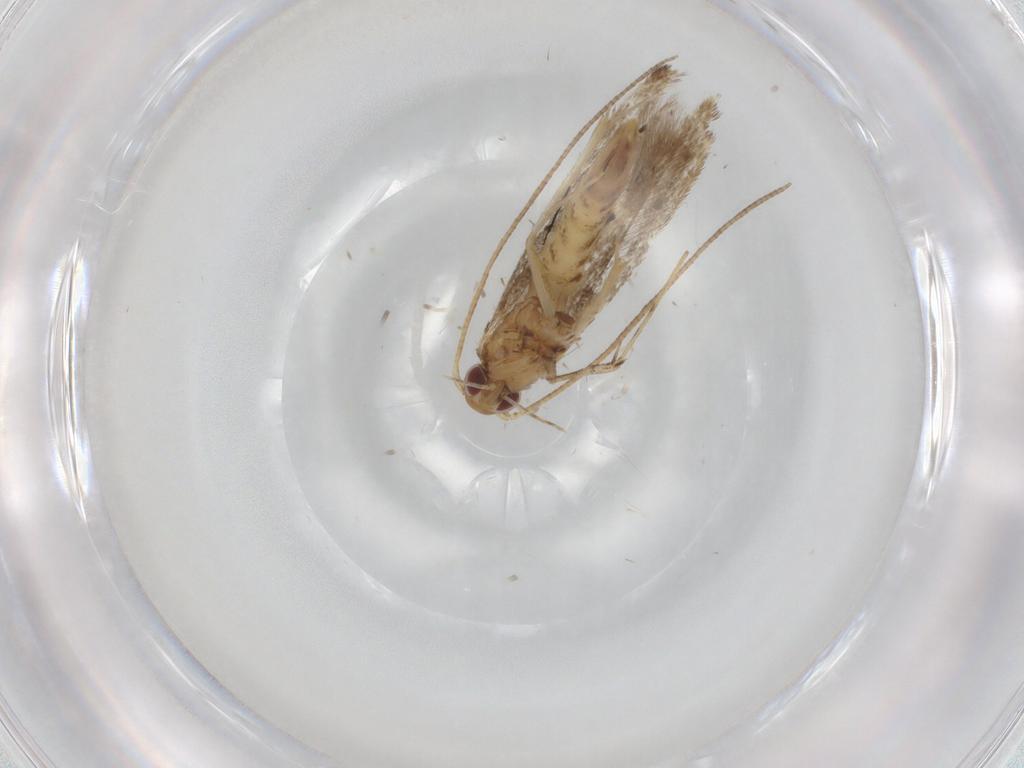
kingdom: Animalia
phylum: Arthropoda
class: Insecta
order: Lepidoptera
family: Gracillariidae
